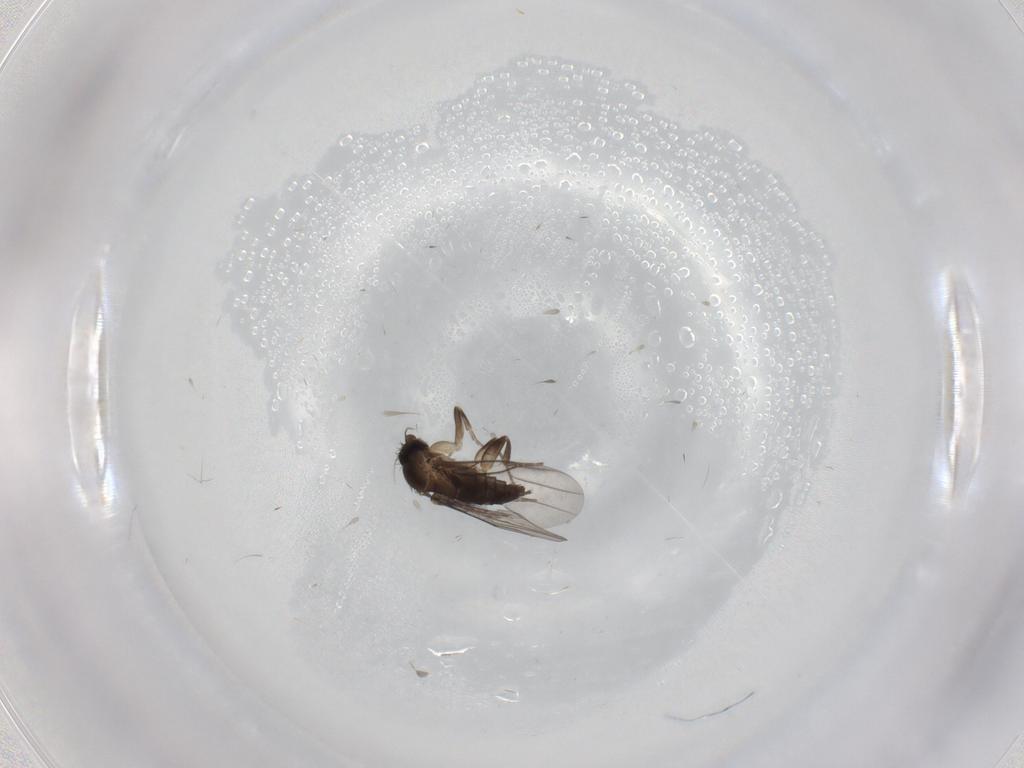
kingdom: Animalia
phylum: Arthropoda
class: Insecta
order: Diptera
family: Phoridae
